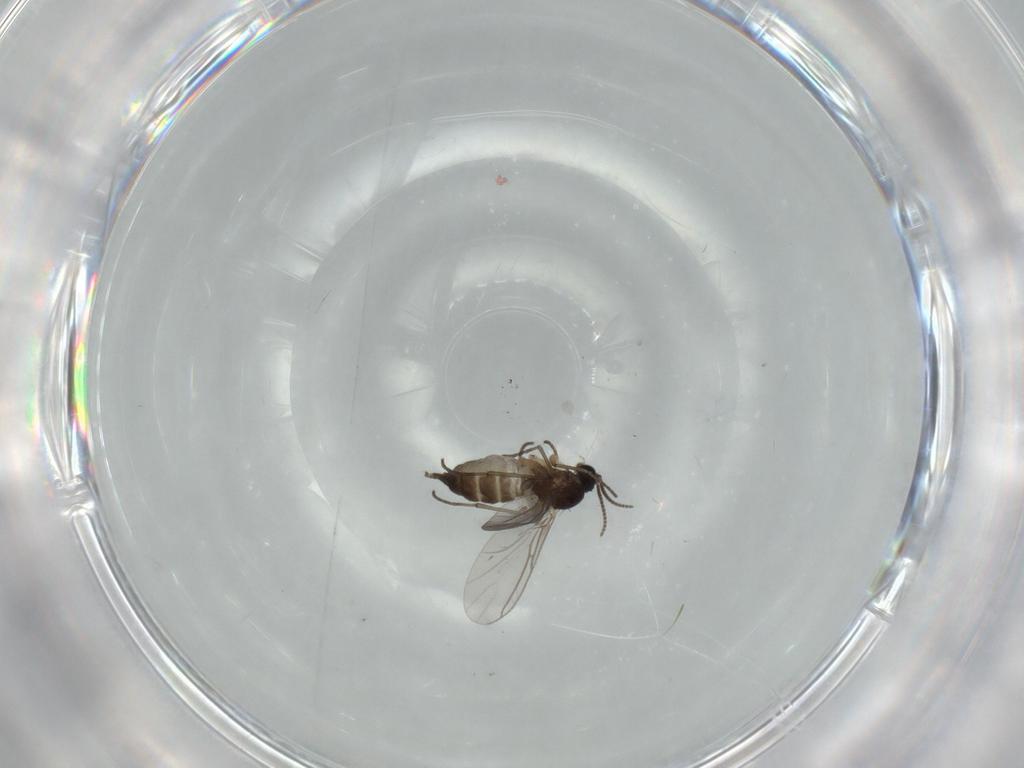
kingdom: Animalia
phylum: Arthropoda
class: Insecta
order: Diptera
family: Sciaridae
